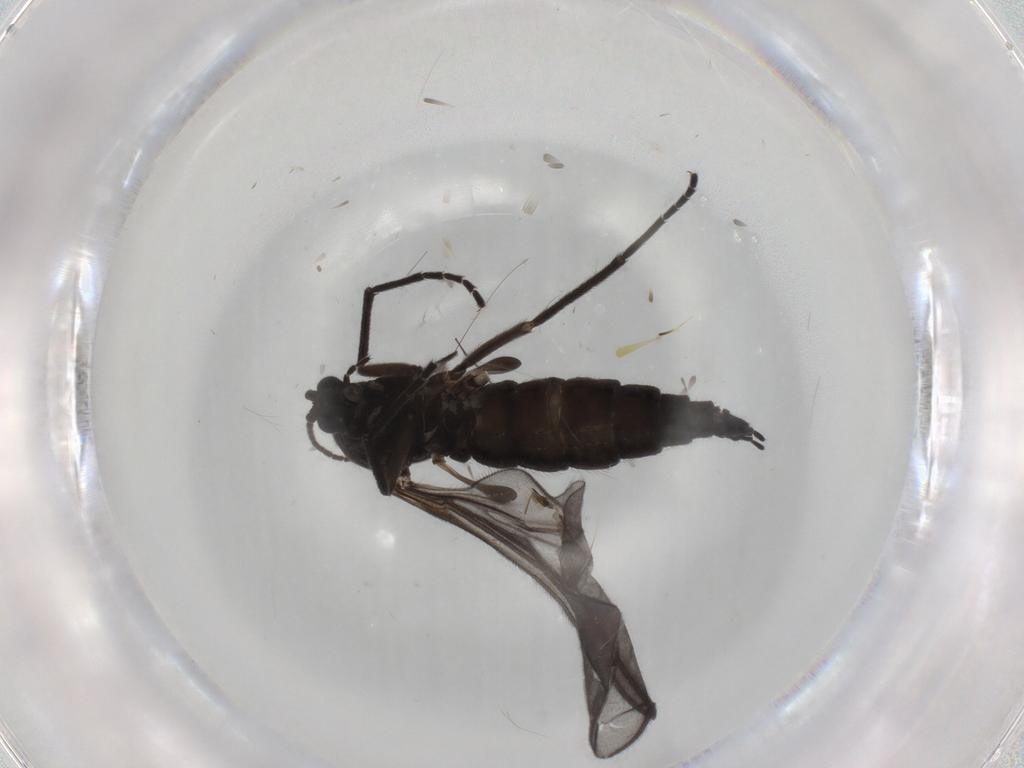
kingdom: Animalia
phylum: Arthropoda
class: Insecta
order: Diptera
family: Sciaridae
